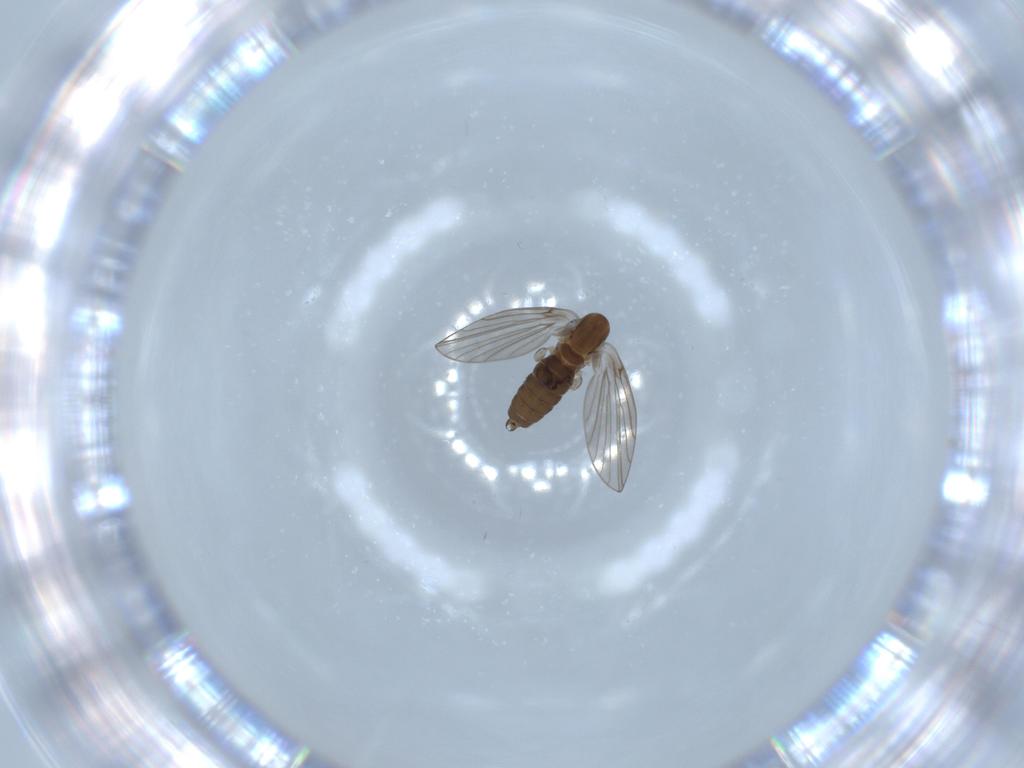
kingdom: Animalia
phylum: Arthropoda
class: Insecta
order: Diptera
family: Psychodidae
